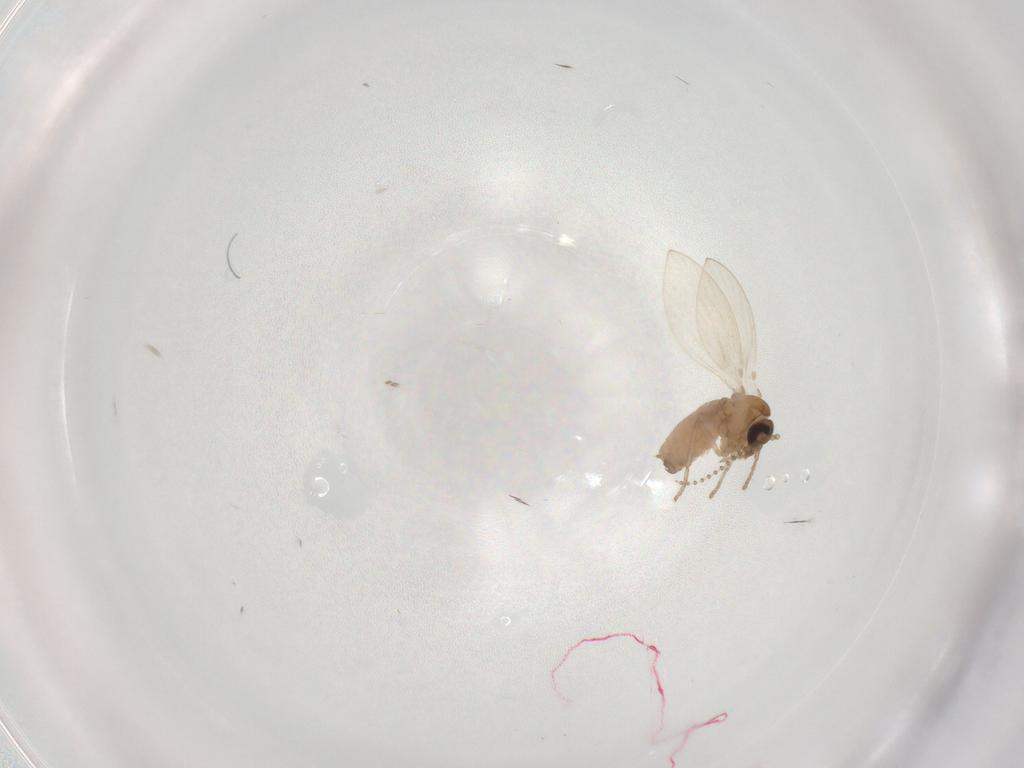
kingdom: Animalia
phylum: Arthropoda
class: Insecta
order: Diptera
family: Psychodidae
